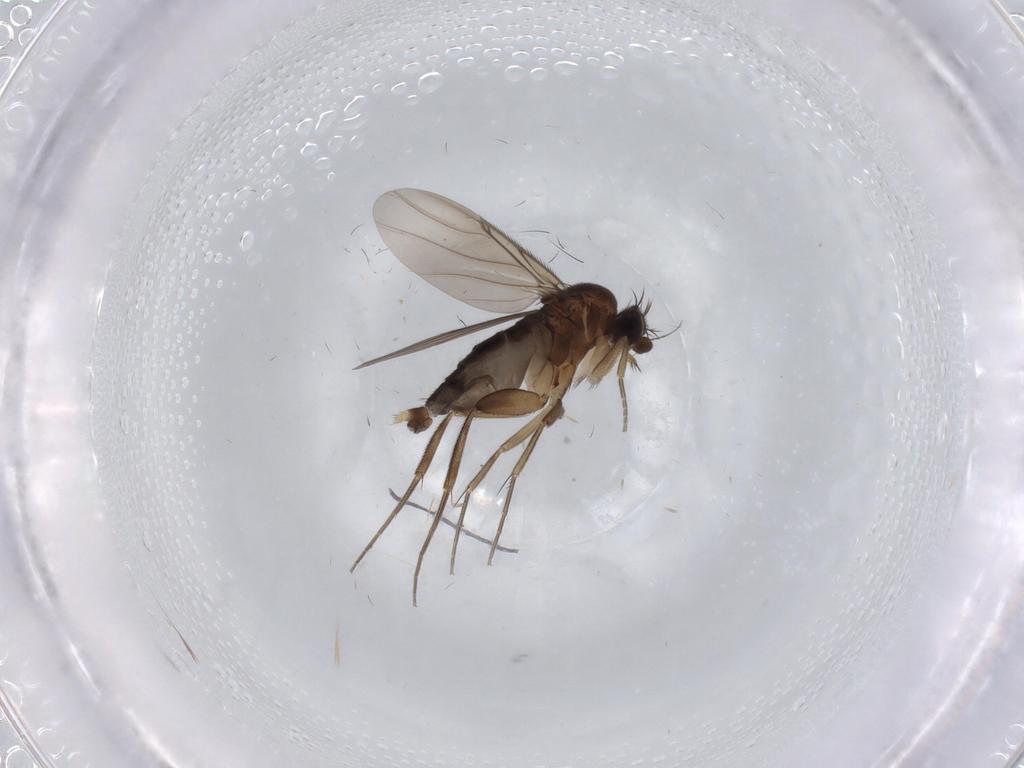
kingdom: Animalia
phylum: Arthropoda
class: Insecta
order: Diptera
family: Phoridae
